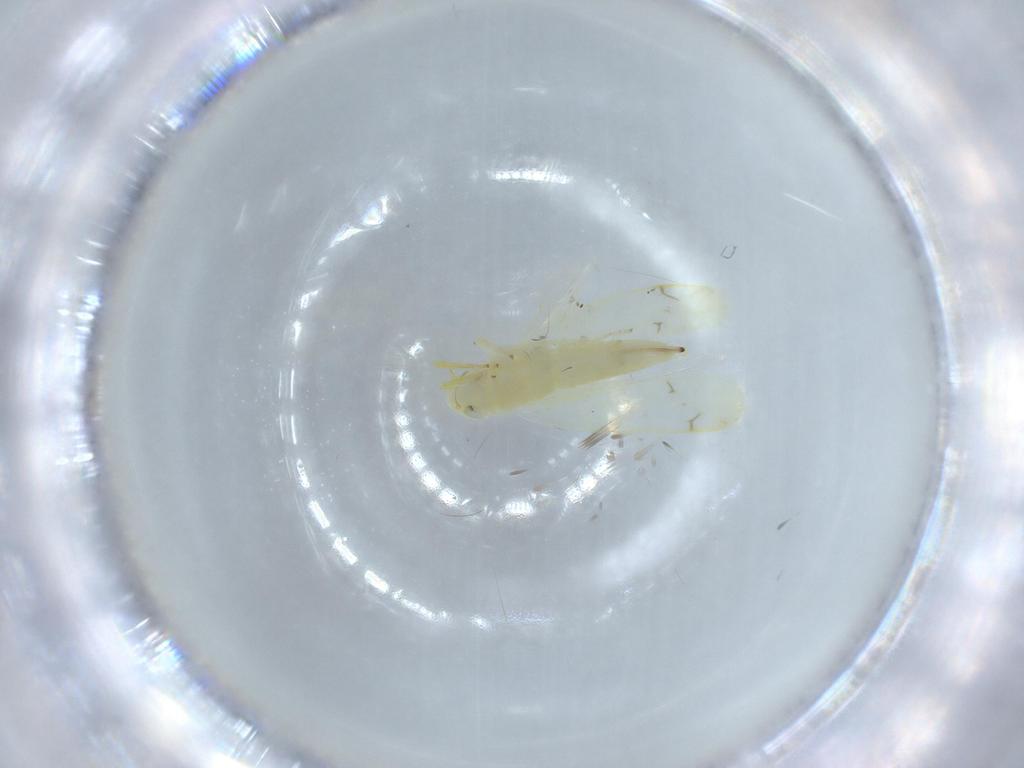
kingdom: Animalia
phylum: Arthropoda
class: Insecta
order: Hemiptera
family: Cicadellidae
